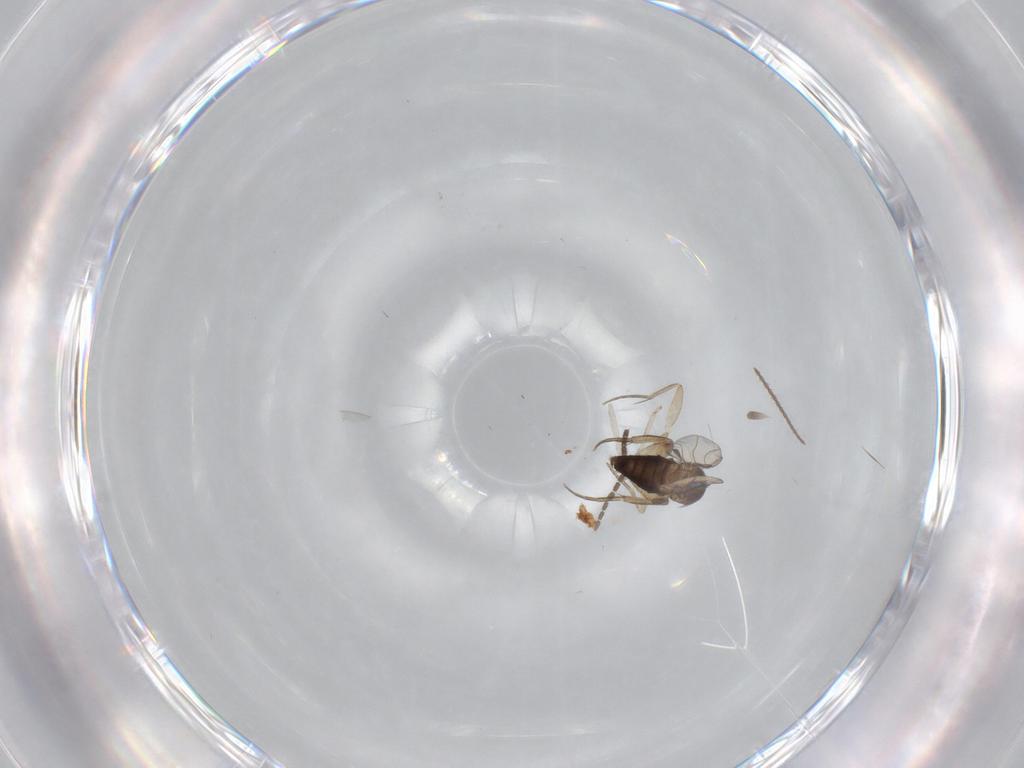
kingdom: Animalia
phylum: Arthropoda
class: Insecta
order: Diptera
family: Sciaridae
